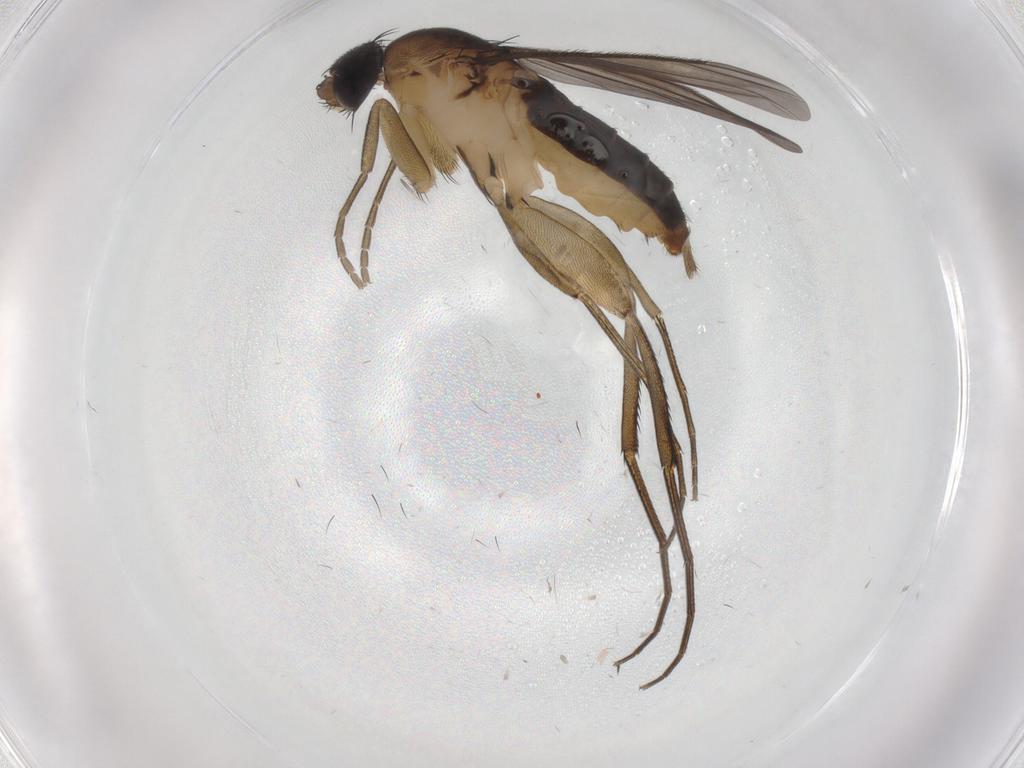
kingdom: Animalia
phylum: Arthropoda
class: Insecta
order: Diptera
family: Phoridae
